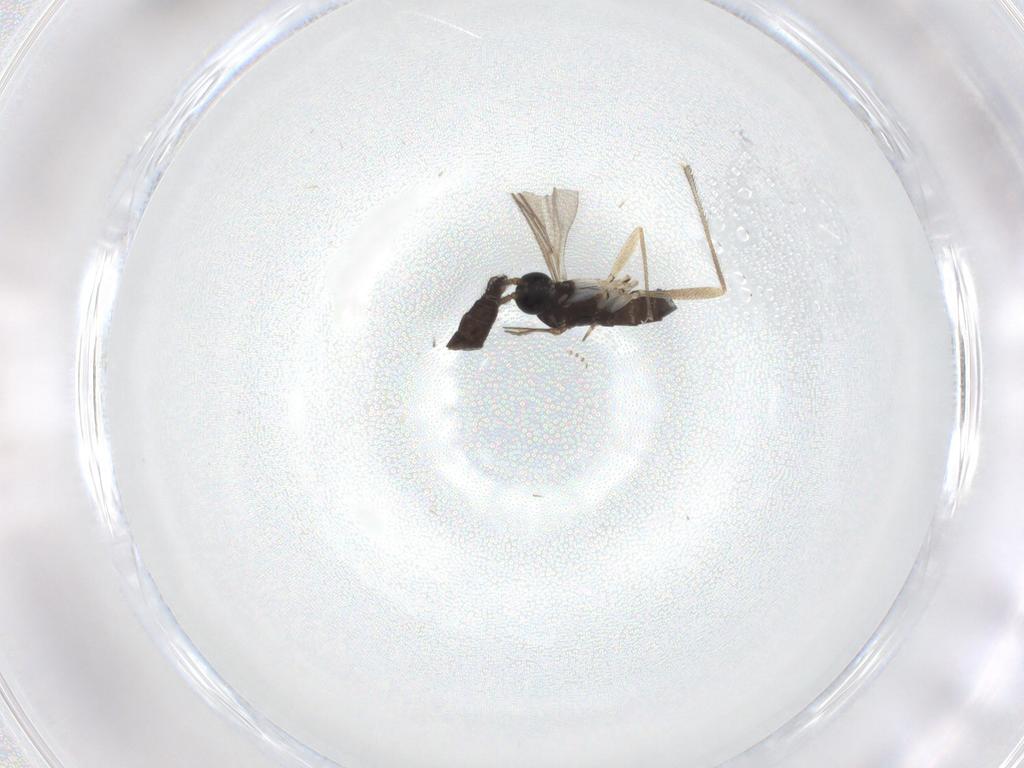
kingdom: Animalia
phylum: Arthropoda
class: Insecta
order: Diptera
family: Sciaridae
